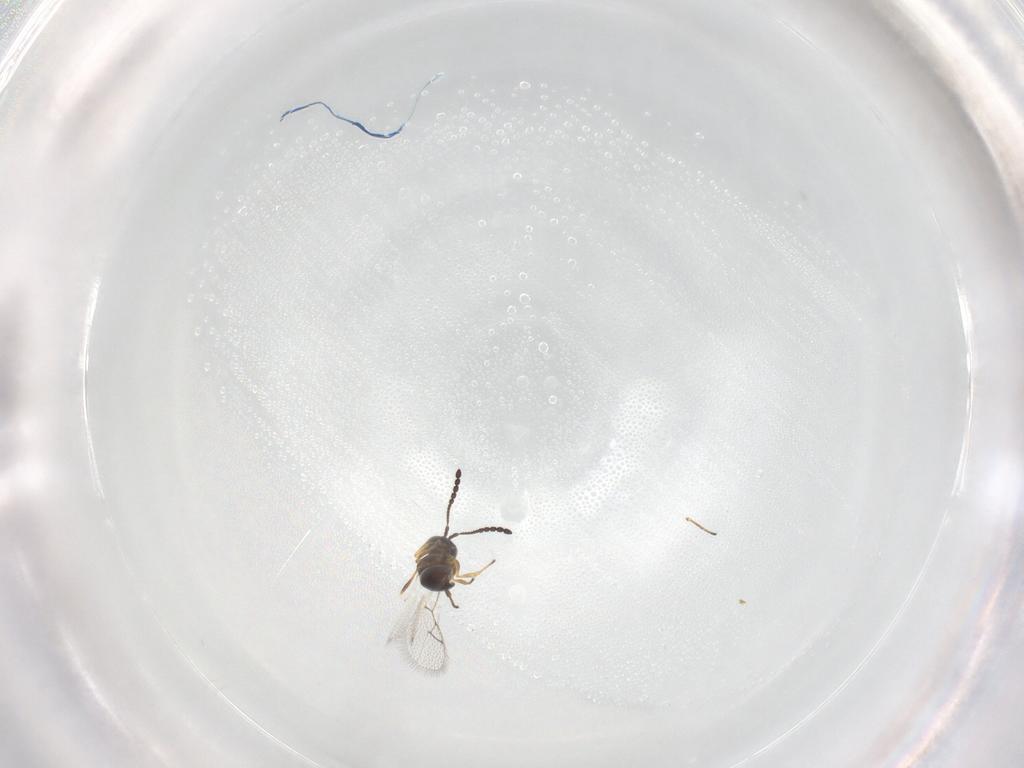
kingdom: Animalia
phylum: Arthropoda
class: Insecta
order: Hymenoptera
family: Figitidae
